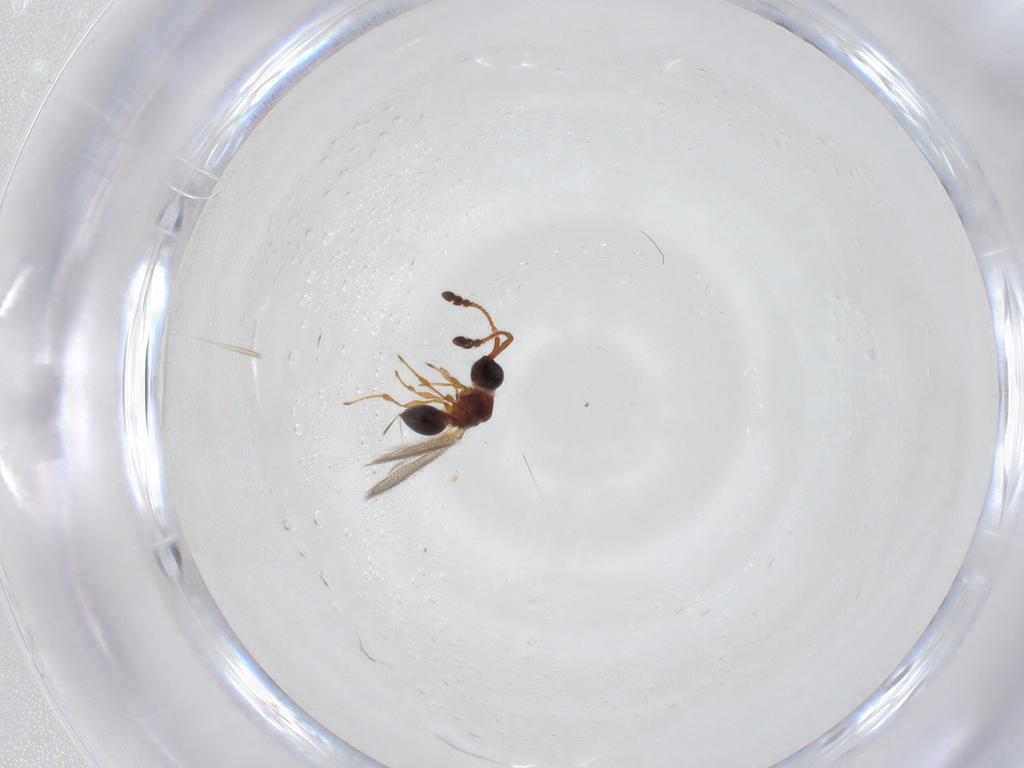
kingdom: Animalia
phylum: Arthropoda
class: Insecta
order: Hymenoptera
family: Diapriidae
